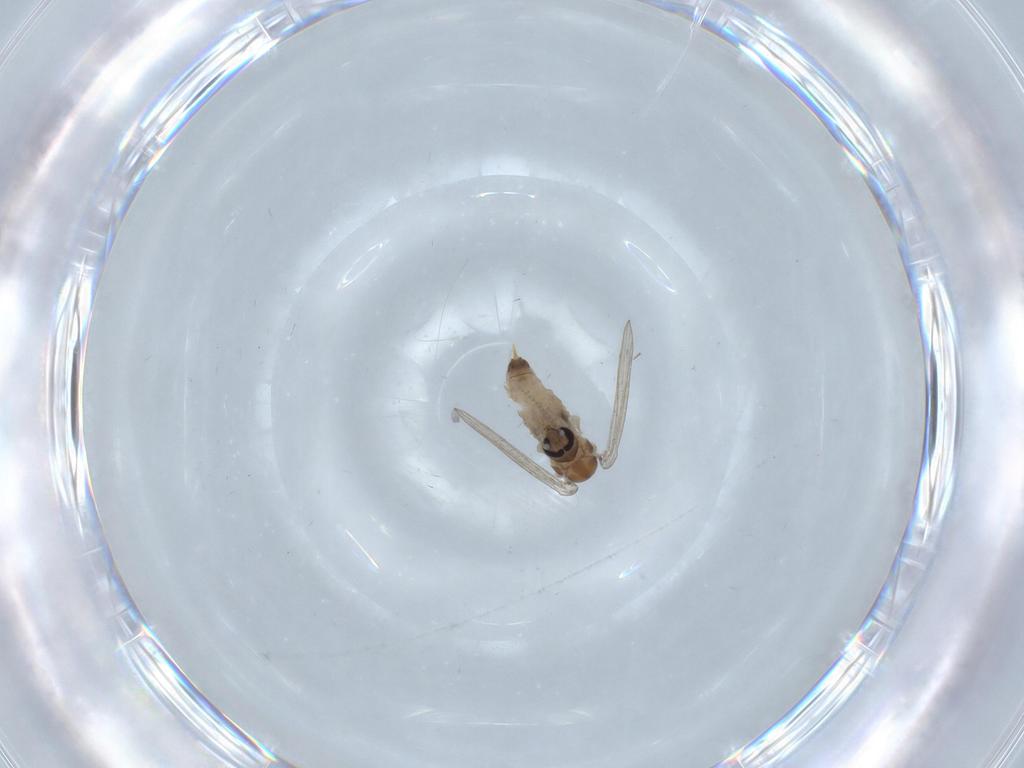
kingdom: Animalia
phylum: Arthropoda
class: Insecta
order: Diptera
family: Psychodidae
